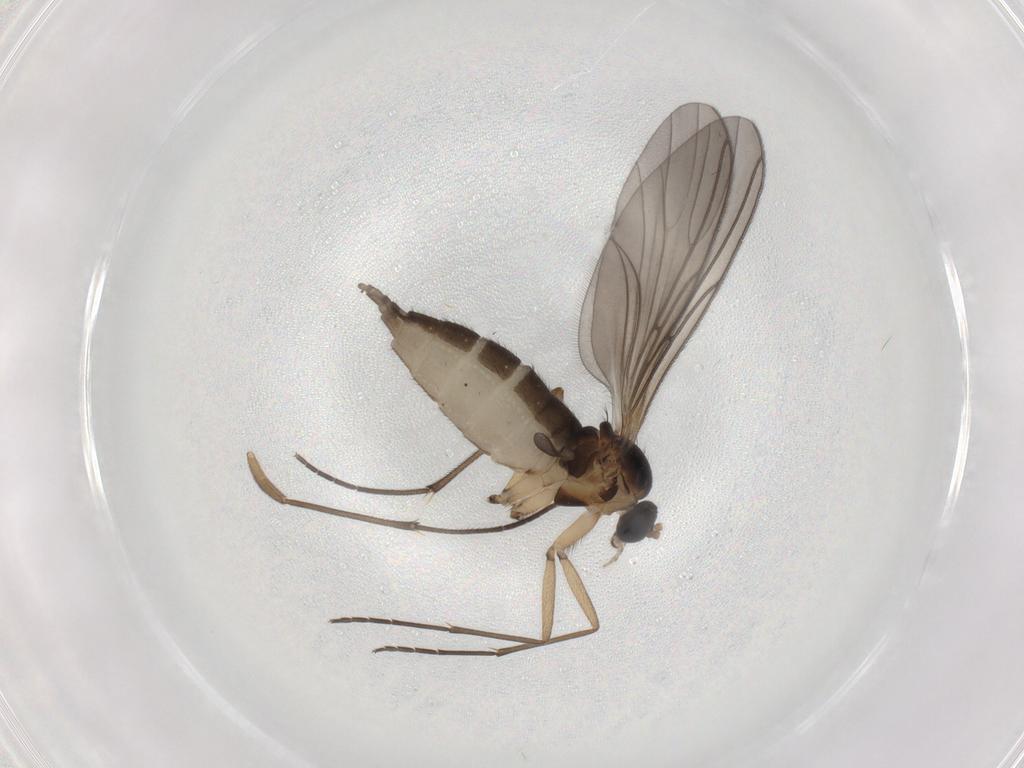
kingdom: Animalia
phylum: Arthropoda
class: Insecta
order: Diptera
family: Sciaridae
